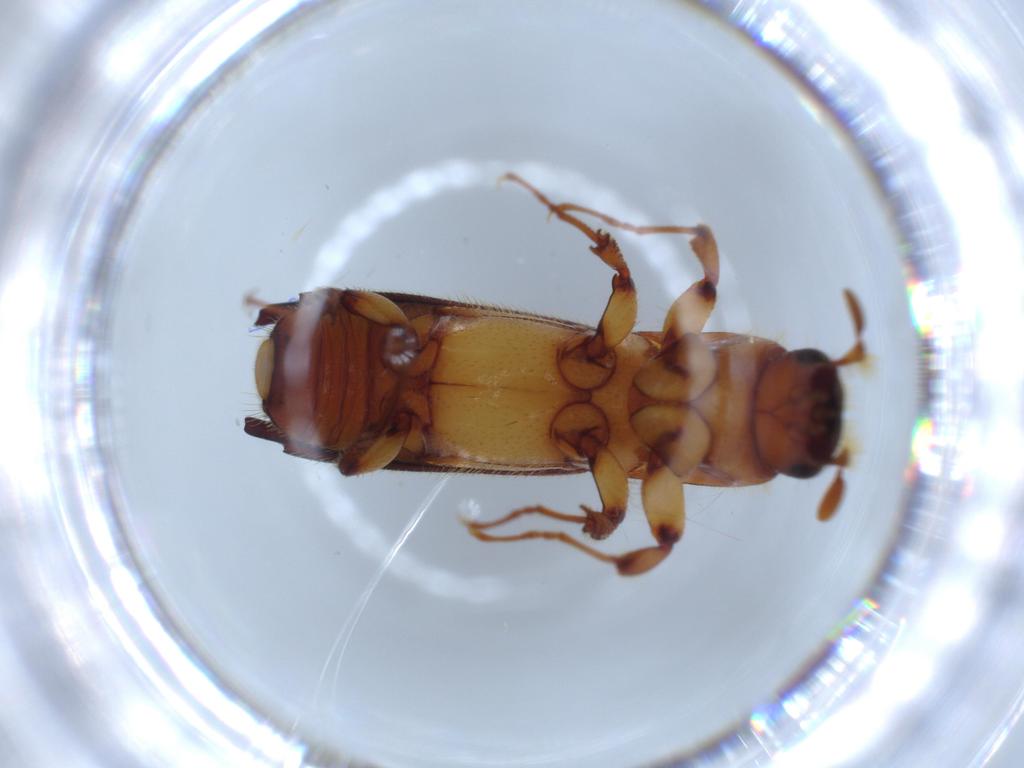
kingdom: Animalia
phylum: Arthropoda
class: Insecta
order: Coleoptera
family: Curculionidae
